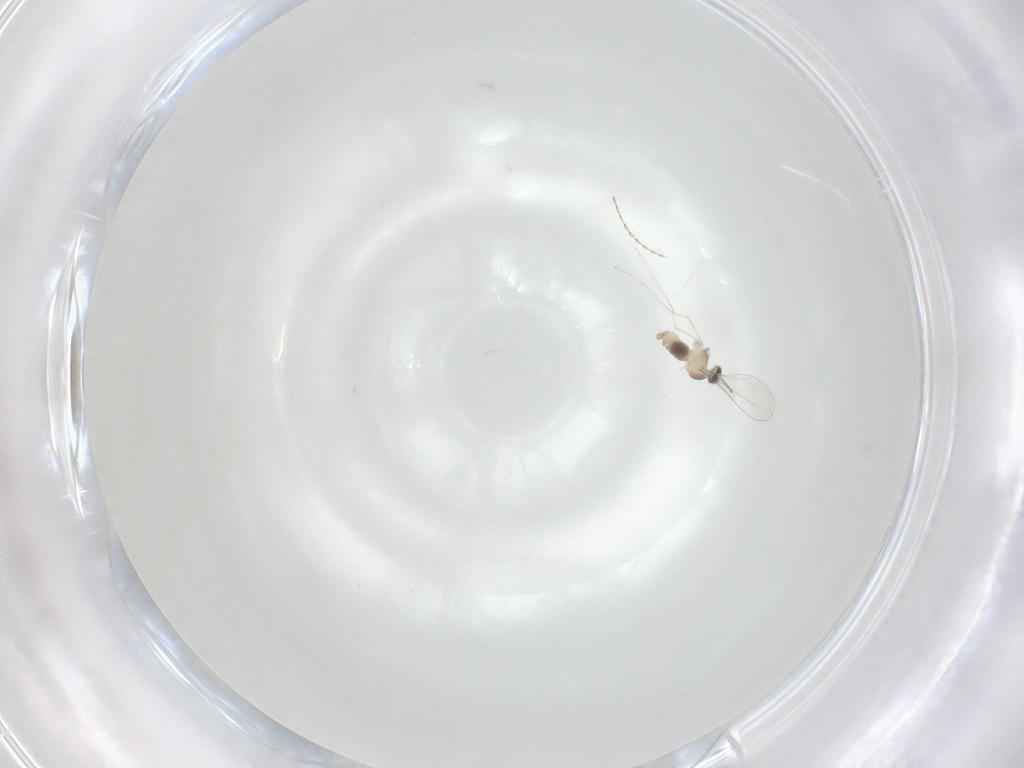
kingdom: Animalia
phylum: Arthropoda
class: Insecta
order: Diptera
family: Cecidomyiidae
